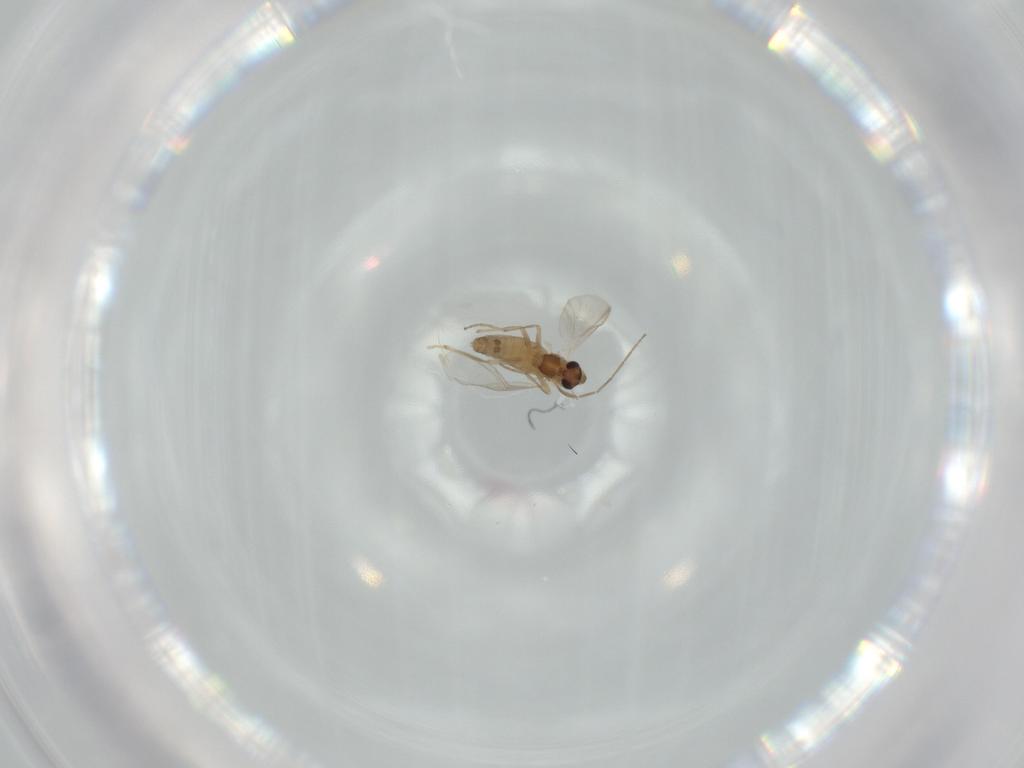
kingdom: Animalia
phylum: Arthropoda
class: Insecta
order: Diptera
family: Chironomidae
